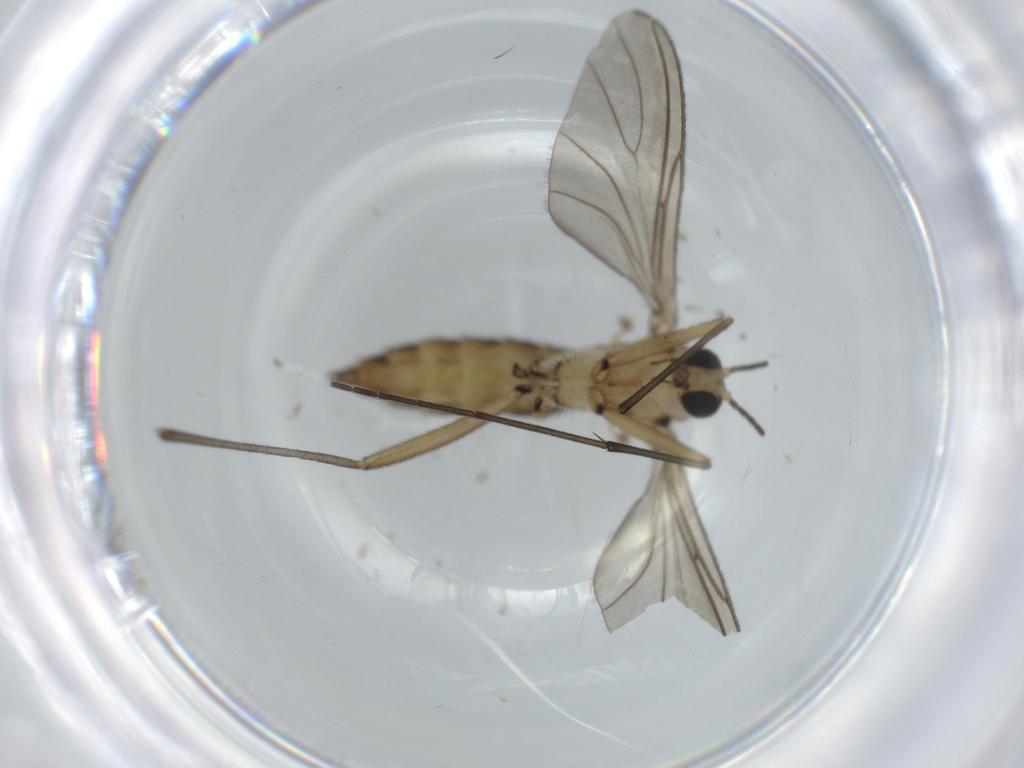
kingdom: Animalia
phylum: Arthropoda
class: Insecta
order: Diptera
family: Sciaridae
